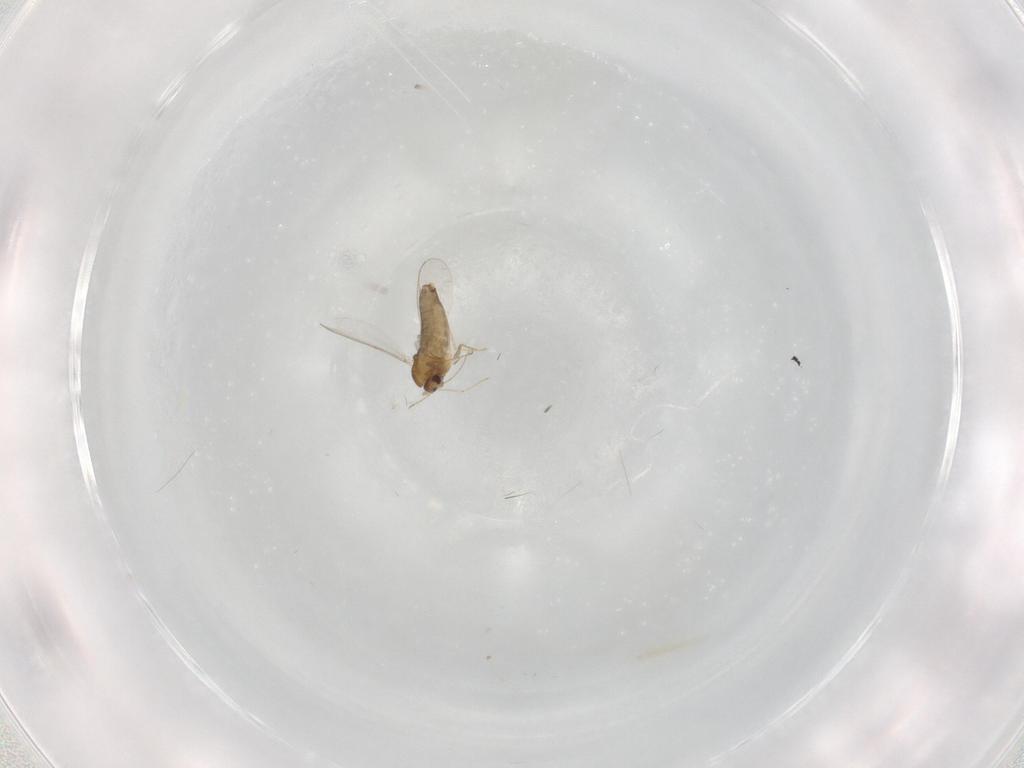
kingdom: Animalia
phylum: Arthropoda
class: Insecta
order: Diptera
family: Chironomidae
